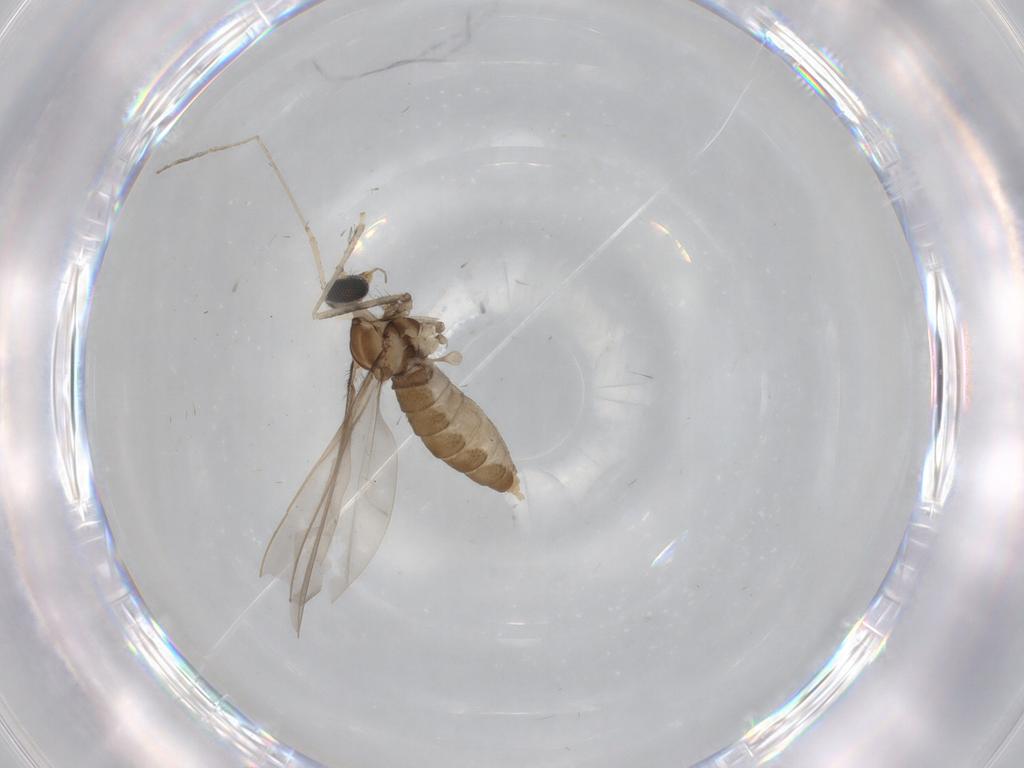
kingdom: Animalia
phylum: Arthropoda
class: Insecta
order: Diptera
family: Cecidomyiidae
